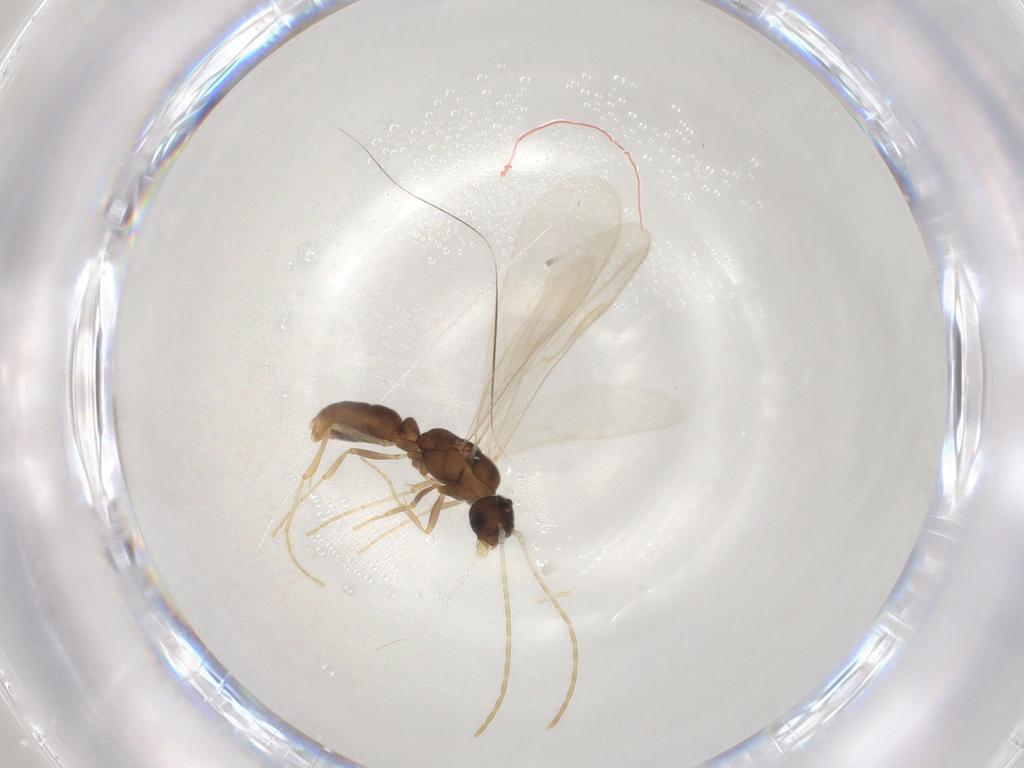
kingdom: Animalia
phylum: Arthropoda
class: Insecta
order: Hymenoptera
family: Formicidae
